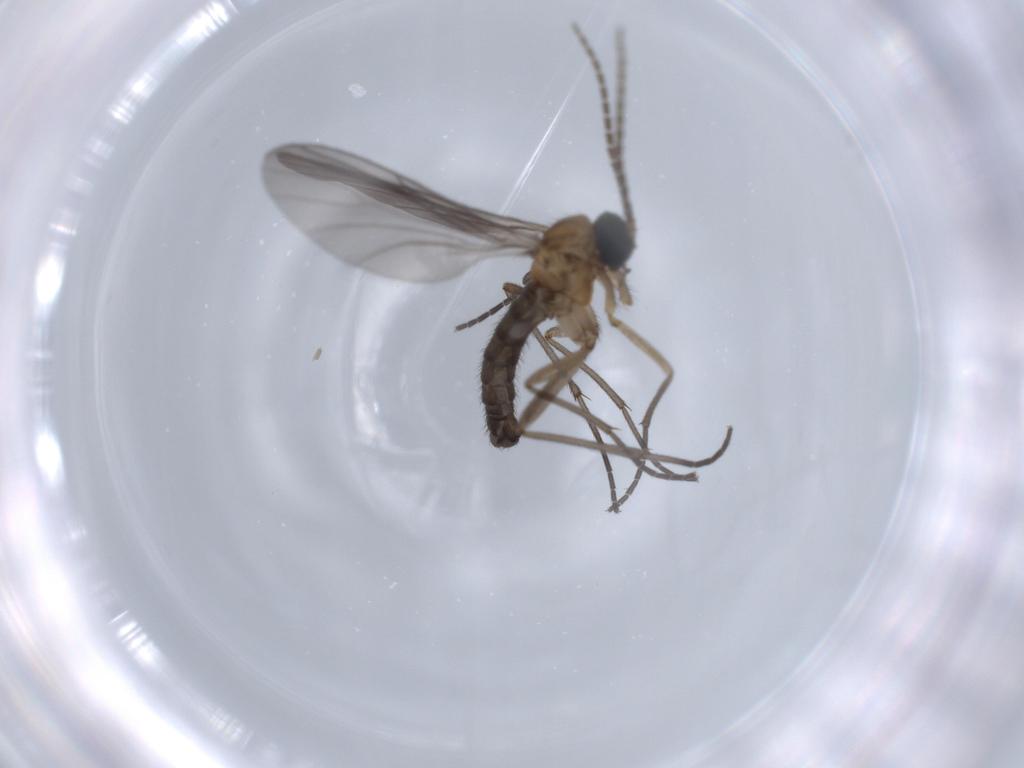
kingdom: Animalia
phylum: Arthropoda
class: Insecta
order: Diptera
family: Sciaridae
